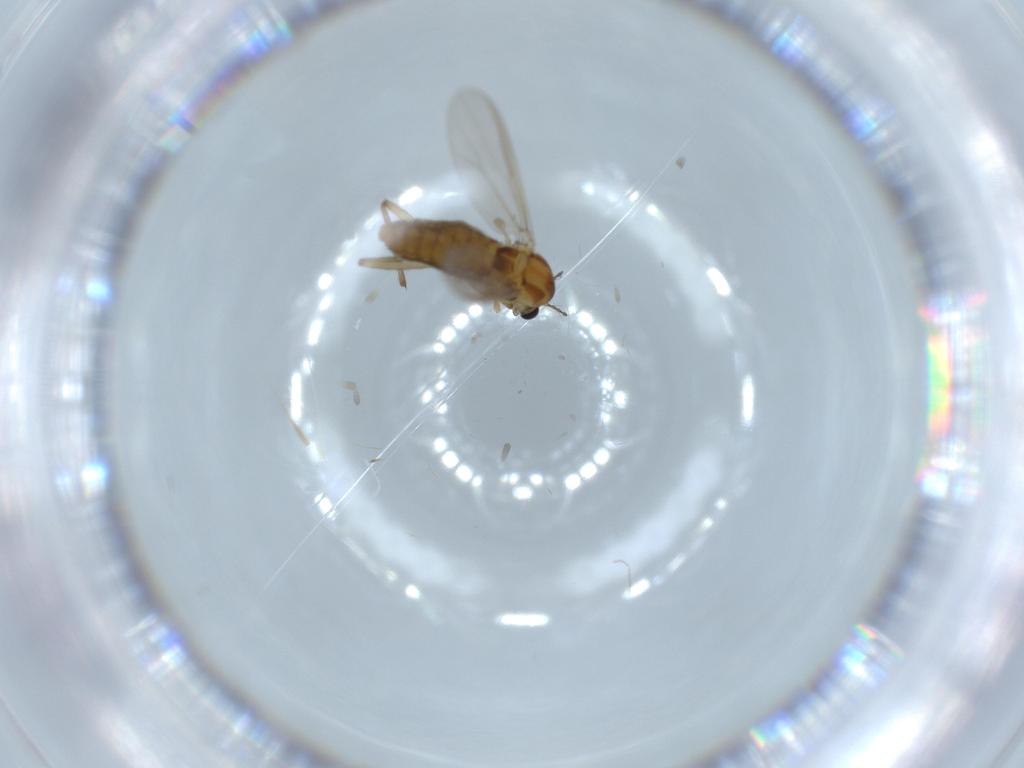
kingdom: Animalia
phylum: Arthropoda
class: Insecta
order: Diptera
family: Chironomidae
